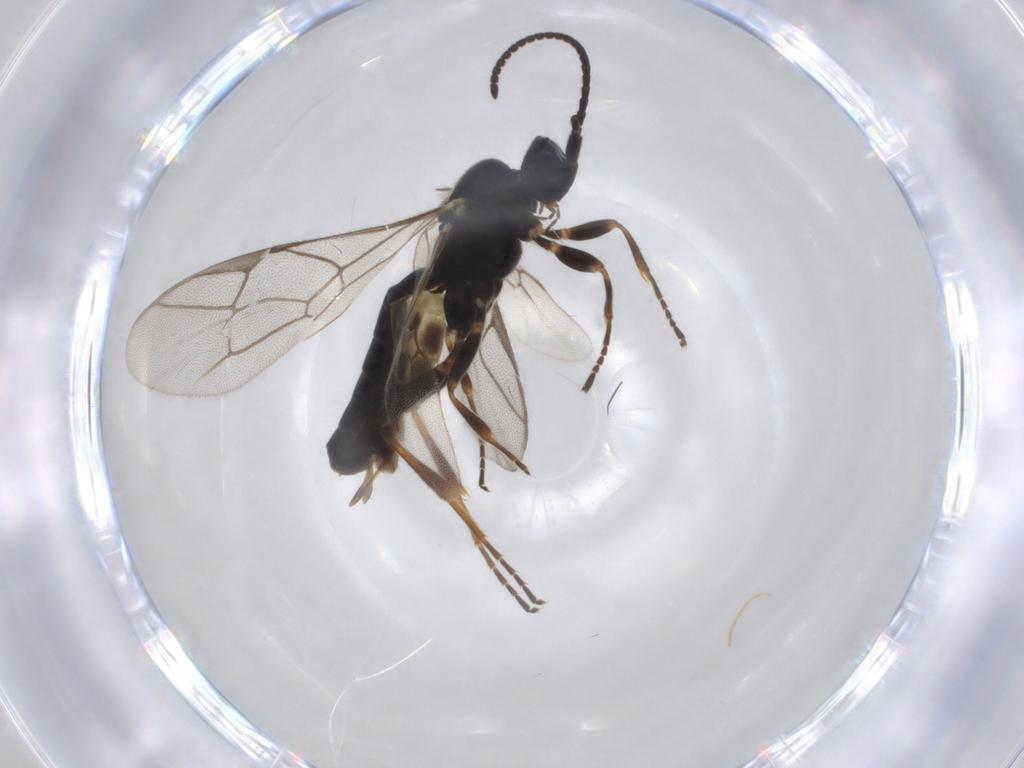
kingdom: Animalia
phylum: Arthropoda
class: Insecta
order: Hymenoptera
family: Ichneumonidae
